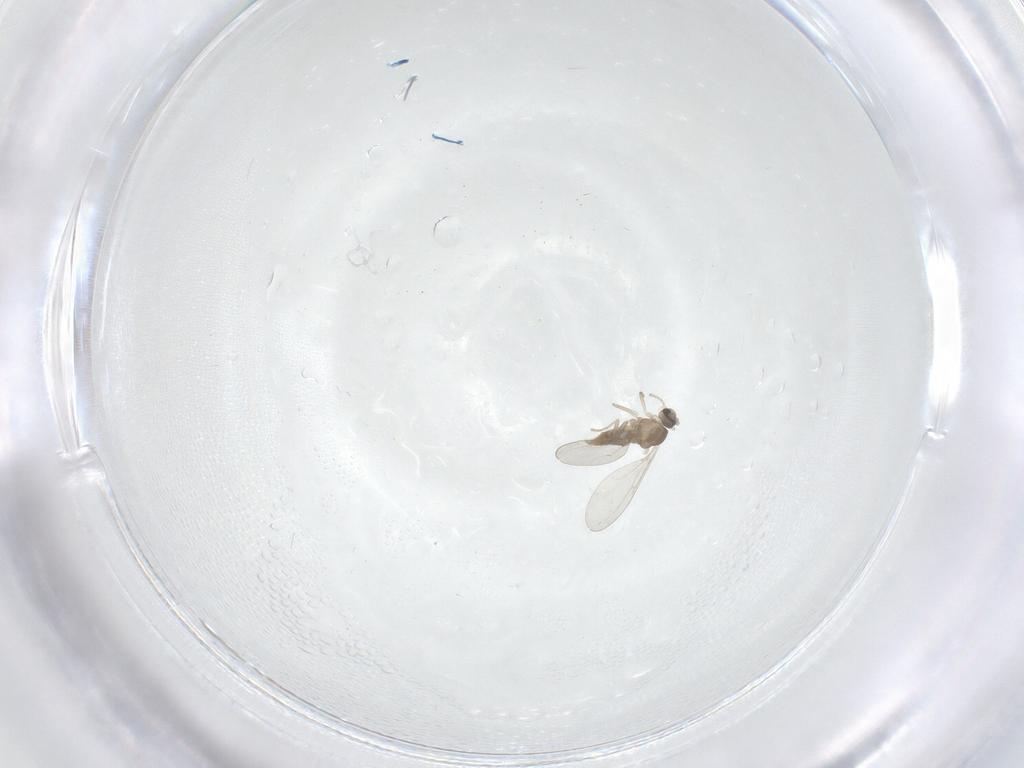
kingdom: Animalia
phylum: Arthropoda
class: Insecta
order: Diptera
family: Cecidomyiidae
